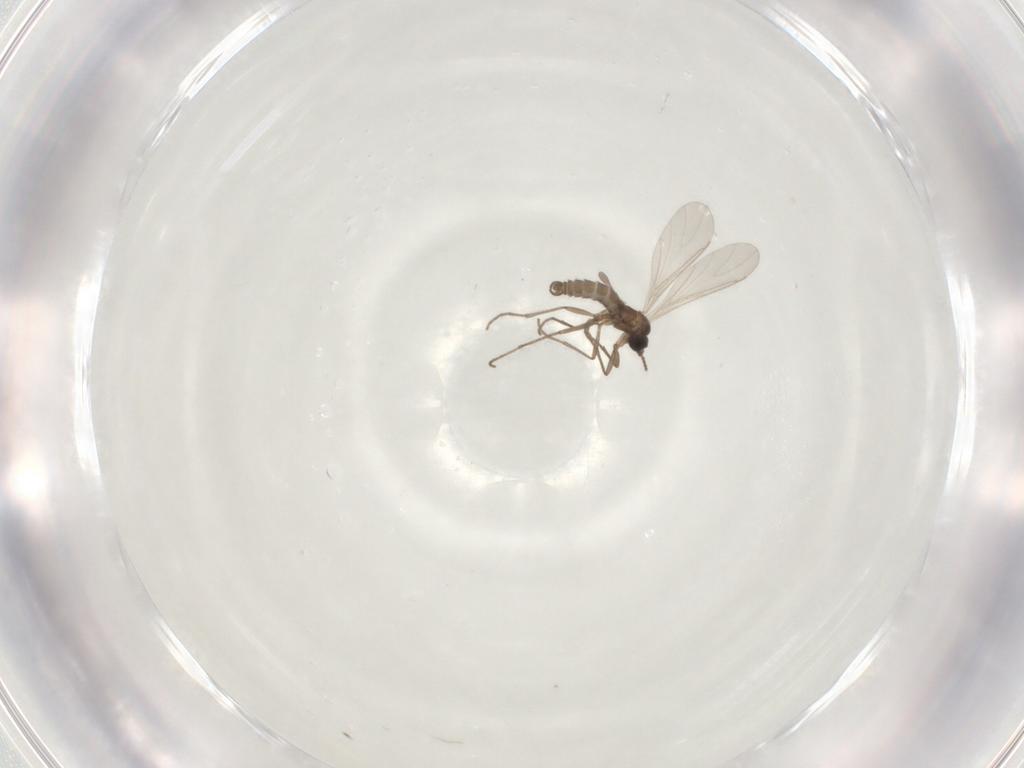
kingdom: Animalia
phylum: Arthropoda
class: Insecta
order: Diptera
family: Sciaridae
